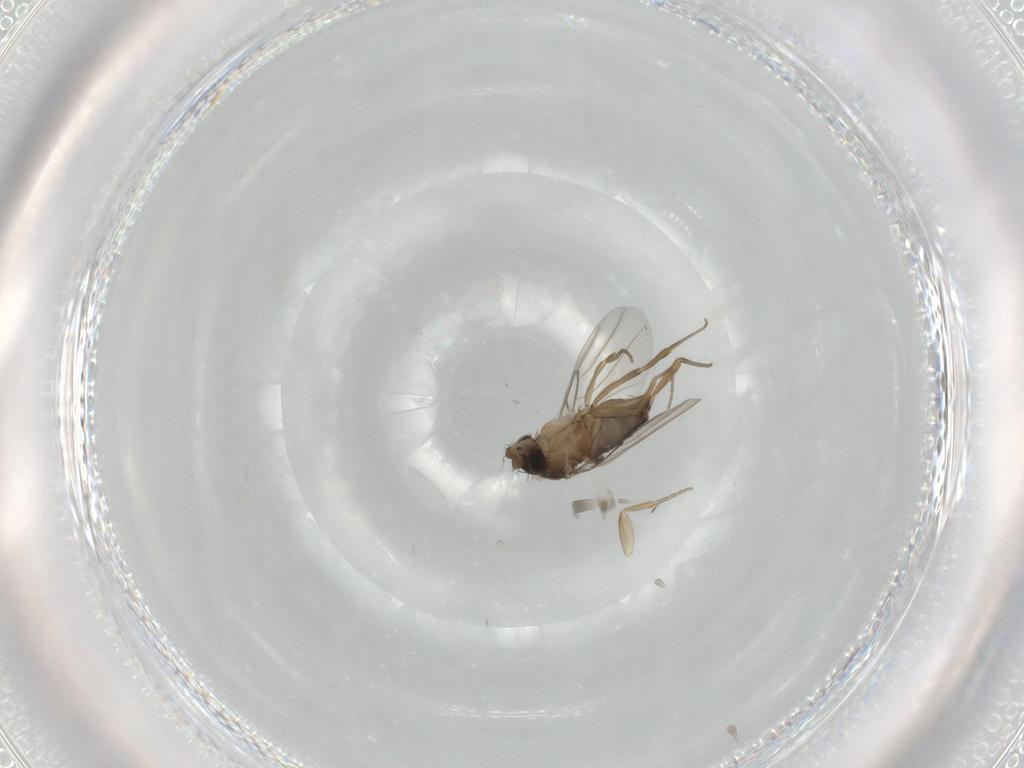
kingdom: Animalia
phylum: Arthropoda
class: Insecta
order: Diptera
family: Phoridae
